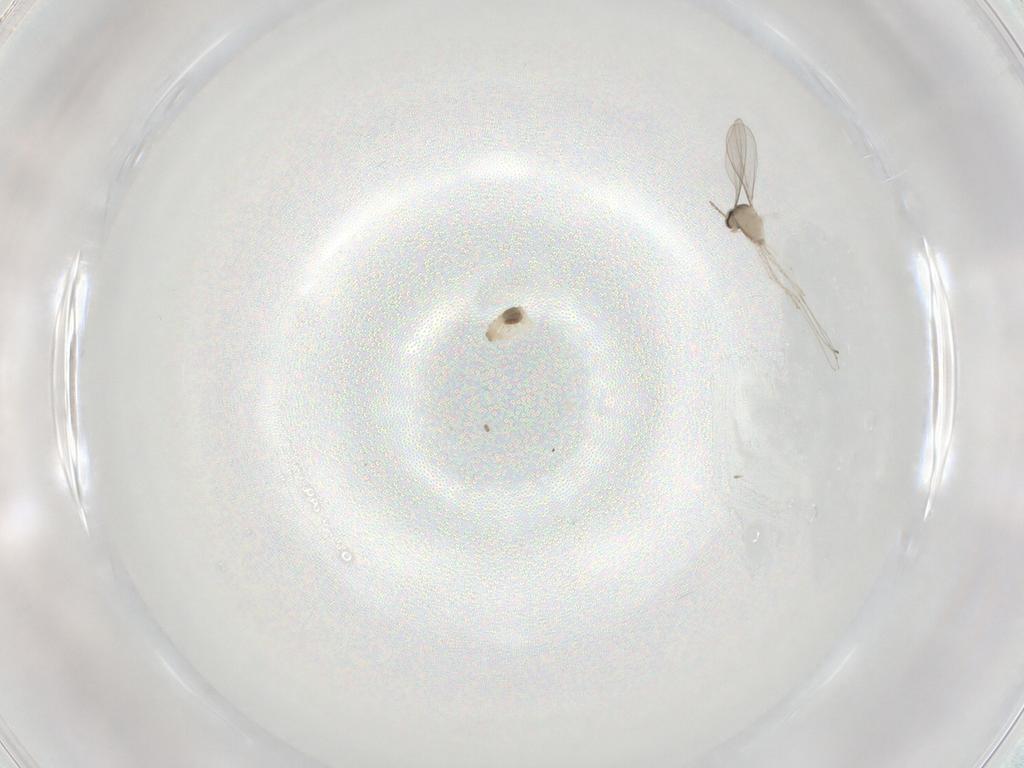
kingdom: Animalia
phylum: Arthropoda
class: Insecta
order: Diptera
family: Cecidomyiidae
